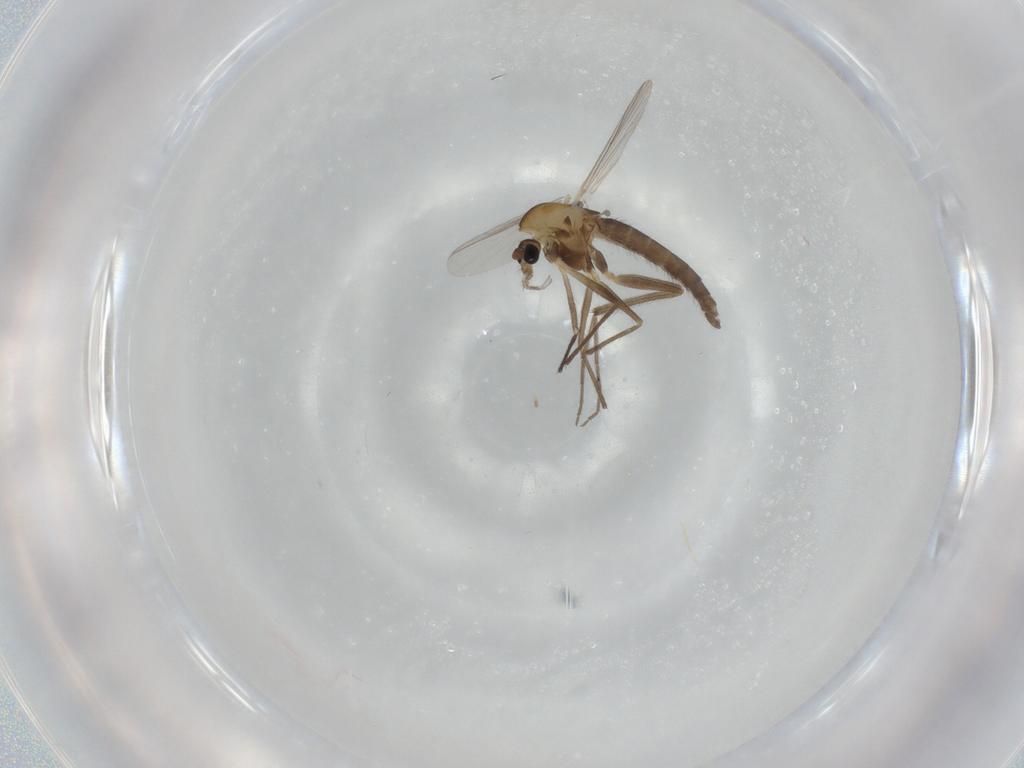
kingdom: Animalia
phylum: Arthropoda
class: Insecta
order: Diptera
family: Chironomidae
